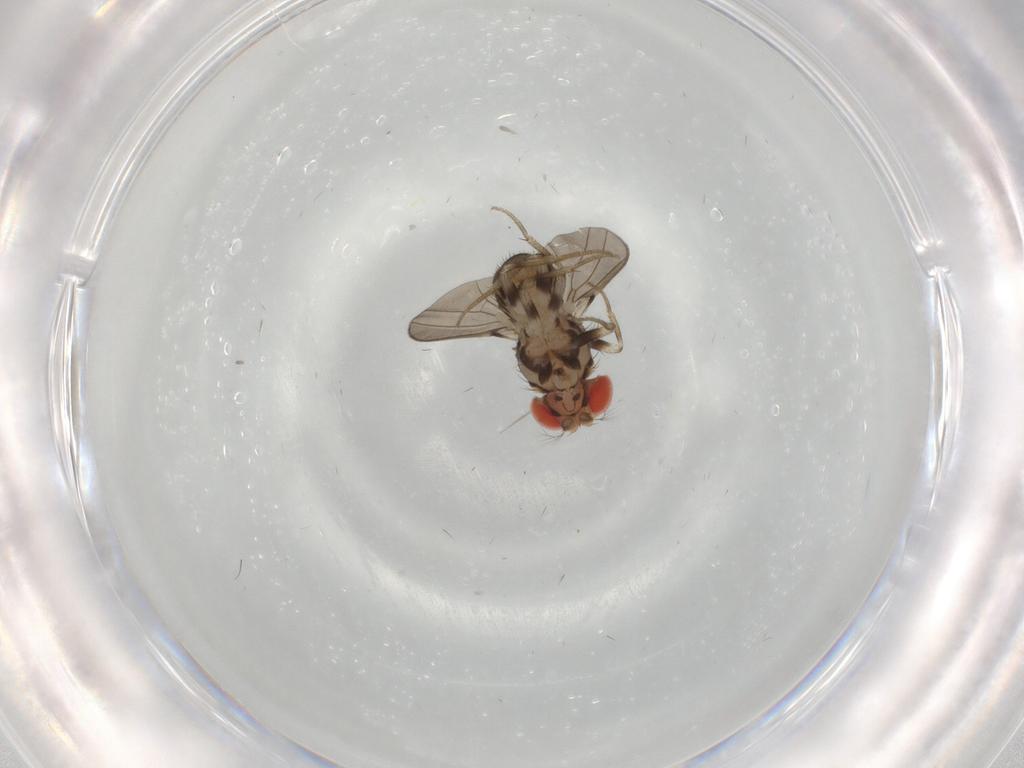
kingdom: Animalia
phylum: Arthropoda
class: Insecta
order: Diptera
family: Drosophilidae
